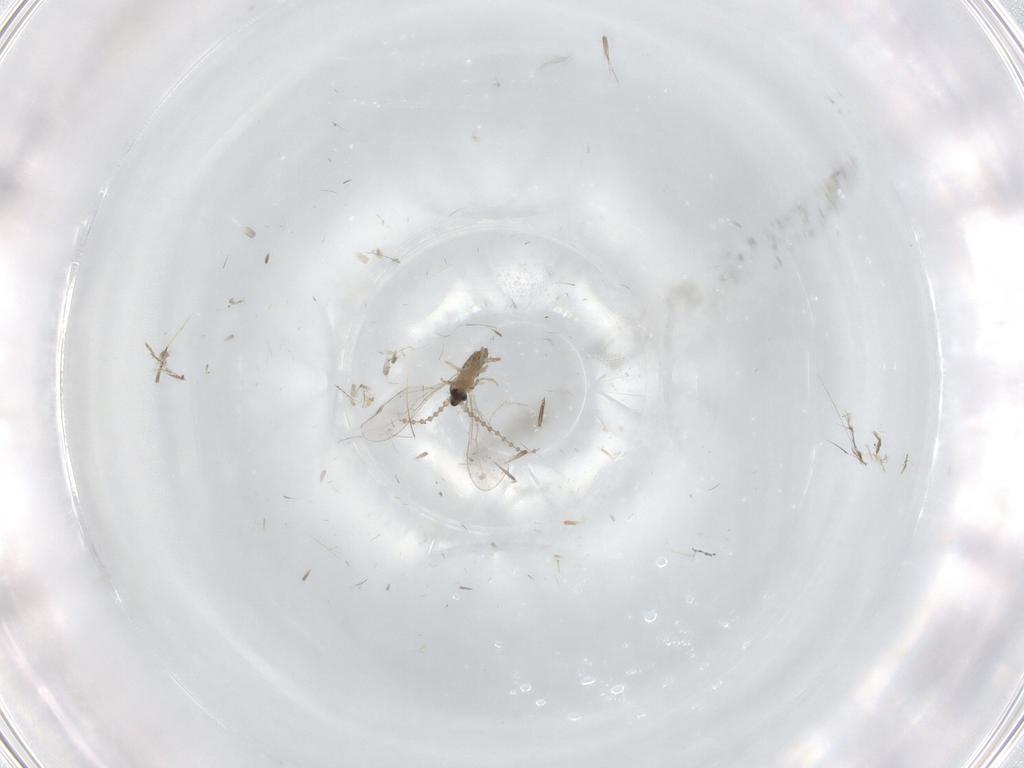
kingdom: Animalia
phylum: Arthropoda
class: Insecta
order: Diptera
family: Cecidomyiidae
